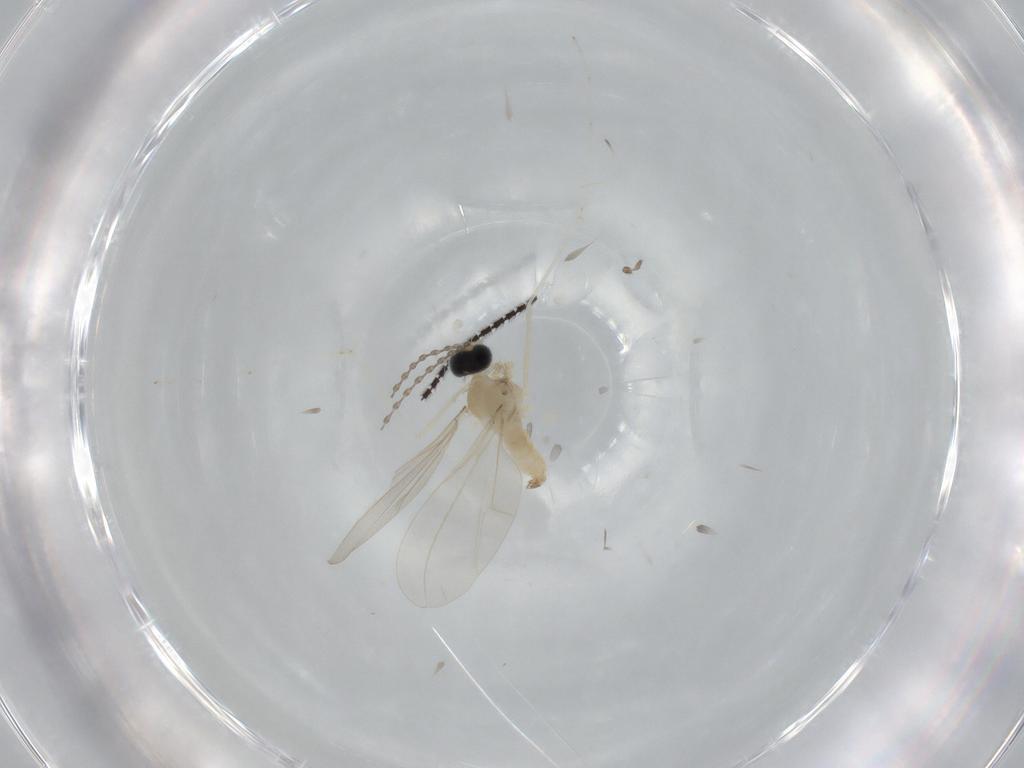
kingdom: Animalia
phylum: Arthropoda
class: Insecta
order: Diptera
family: Cecidomyiidae
